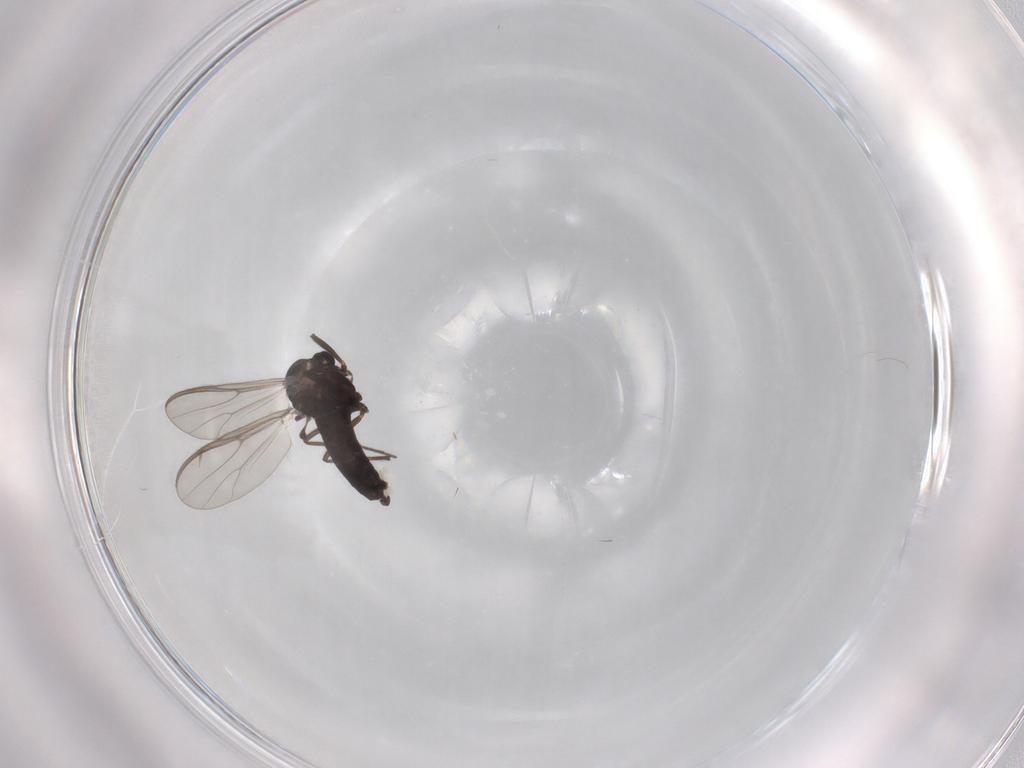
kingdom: Animalia
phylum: Arthropoda
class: Insecta
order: Diptera
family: Chironomidae
